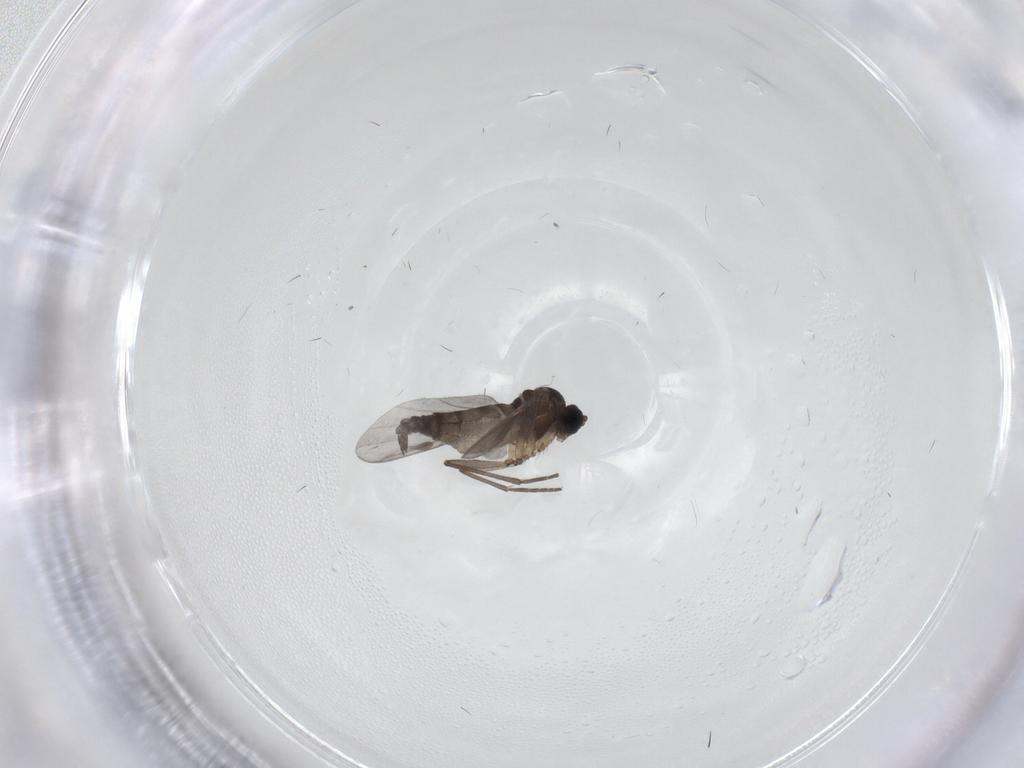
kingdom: Animalia
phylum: Arthropoda
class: Insecta
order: Diptera
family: Sciaridae
